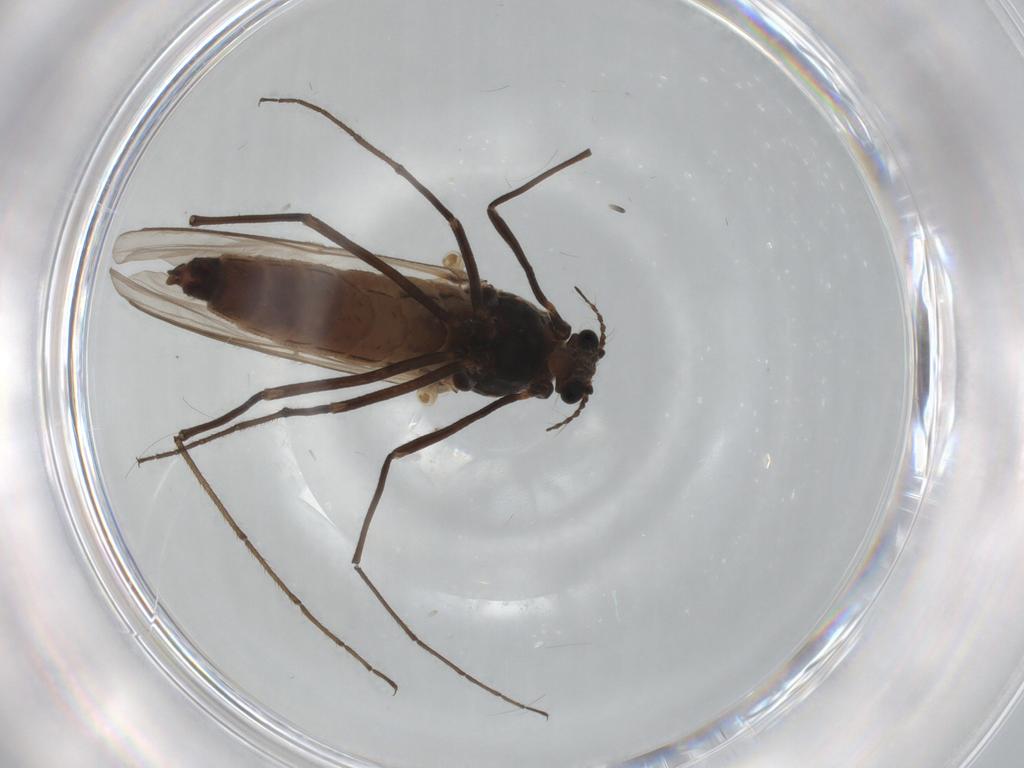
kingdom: Animalia
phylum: Arthropoda
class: Insecta
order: Diptera
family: Chironomidae
